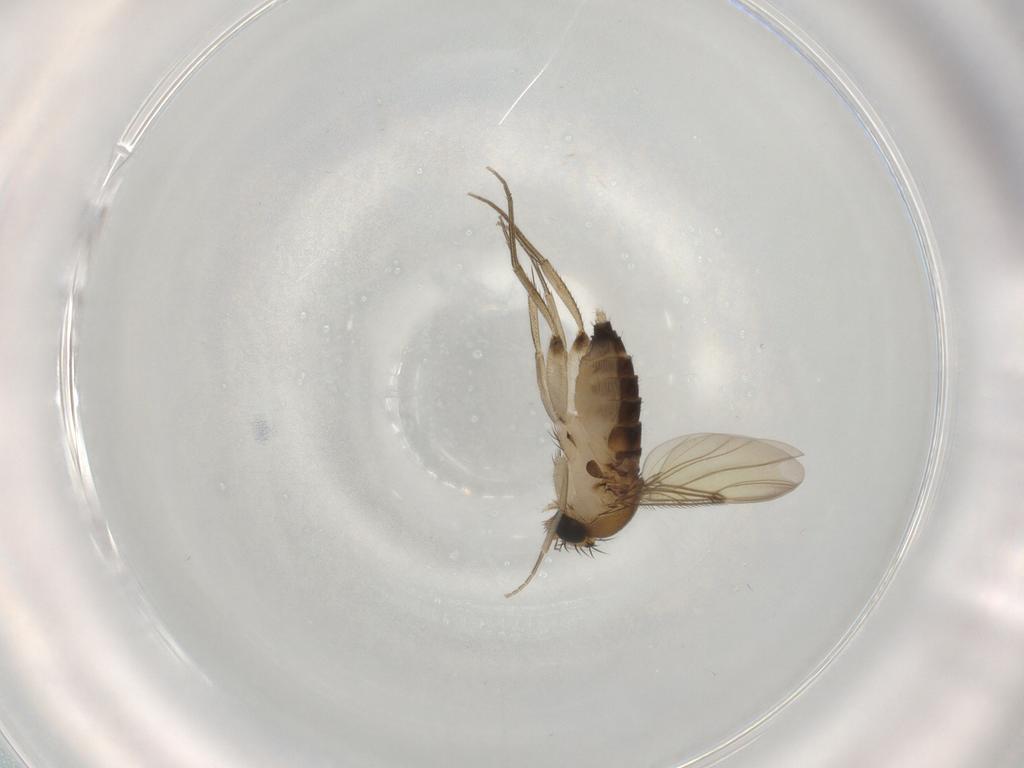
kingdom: Animalia
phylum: Arthropoda
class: Insecta
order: Diptera
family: Phoridae
